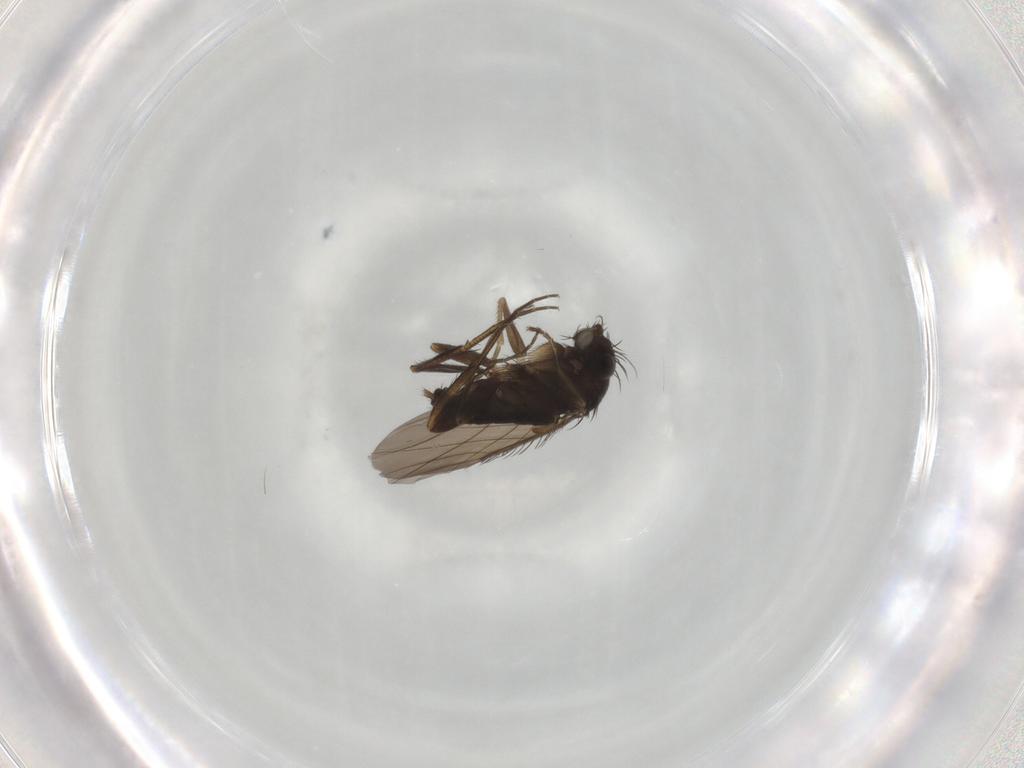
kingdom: Animalia
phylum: Arthropoda
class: Insecta
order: Diptera
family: Phoridae
